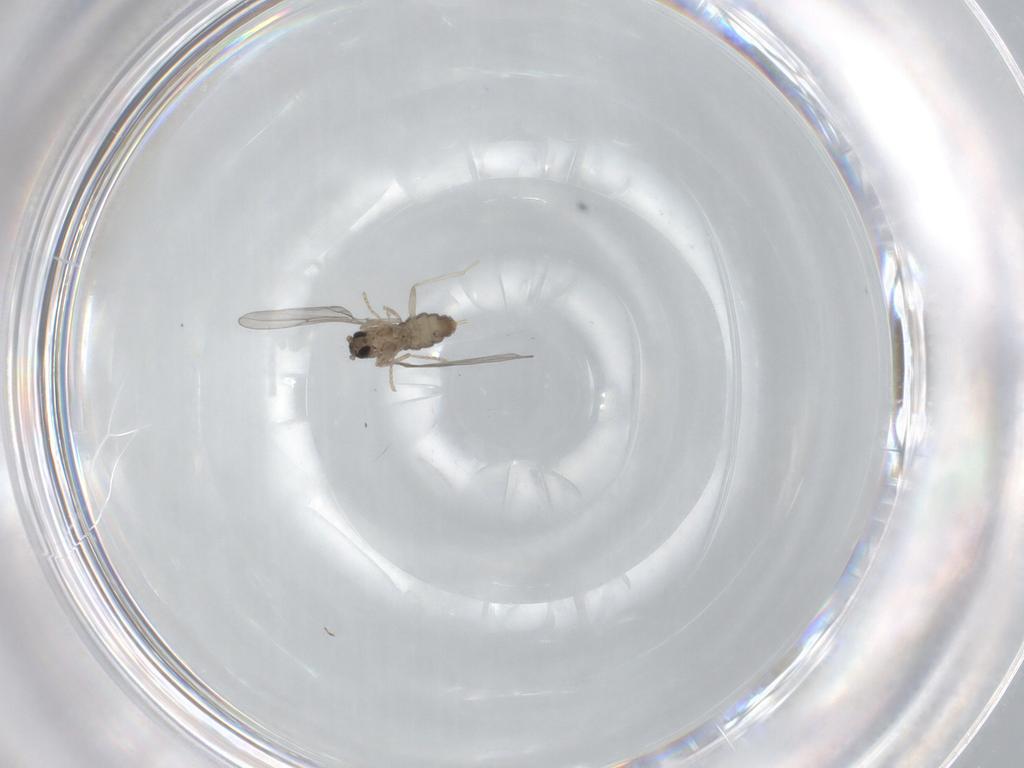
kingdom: Animalia
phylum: Arthropoda
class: Insecta
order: Diptera
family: Cecidomyiidae
